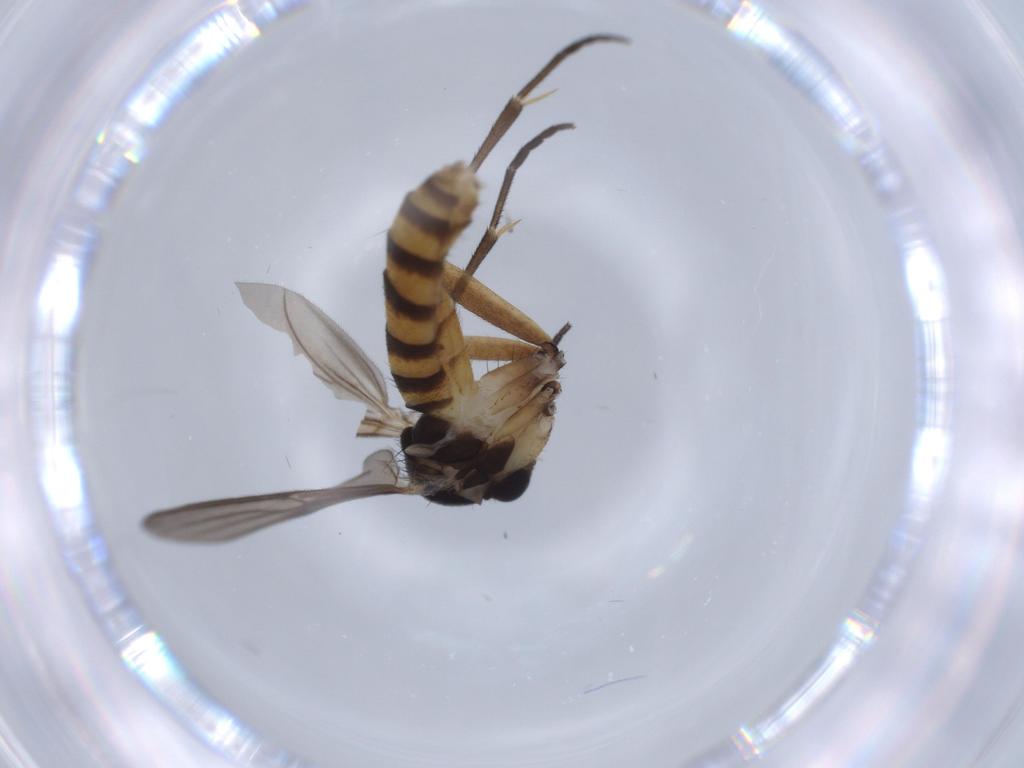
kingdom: Animalia
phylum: Arthropoda
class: Insecta
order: Diptera
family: Mycetophilidae
